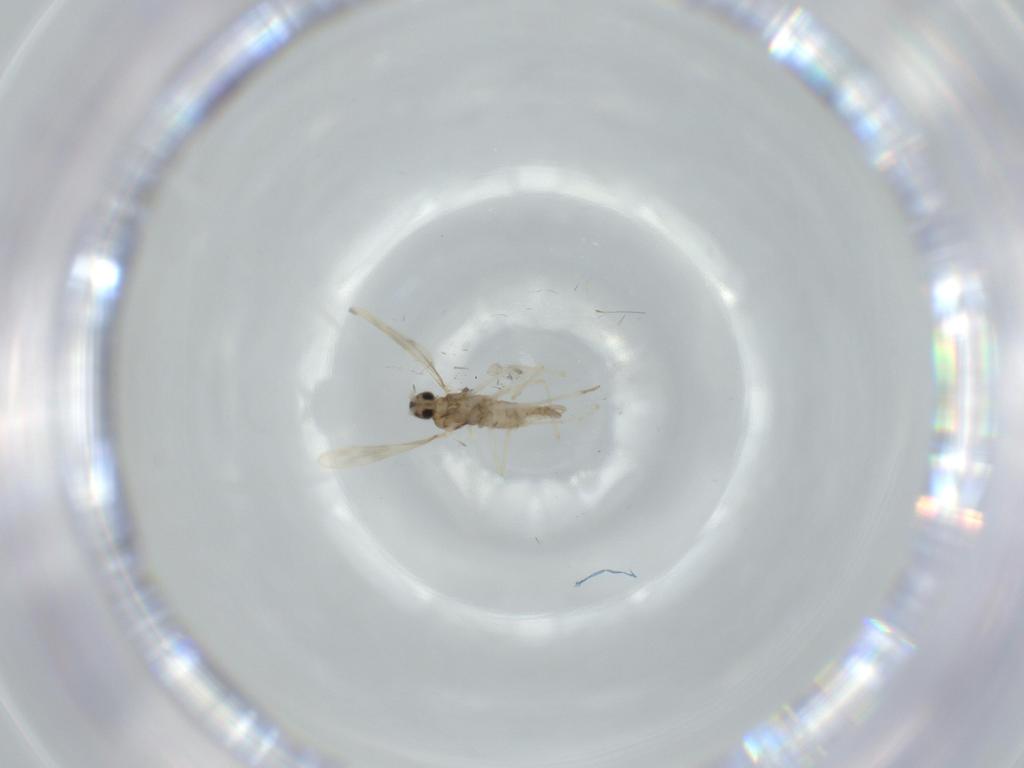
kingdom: Animalia
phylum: Arthropoda
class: Insecta
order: Diptera
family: Cecidomyiidae
